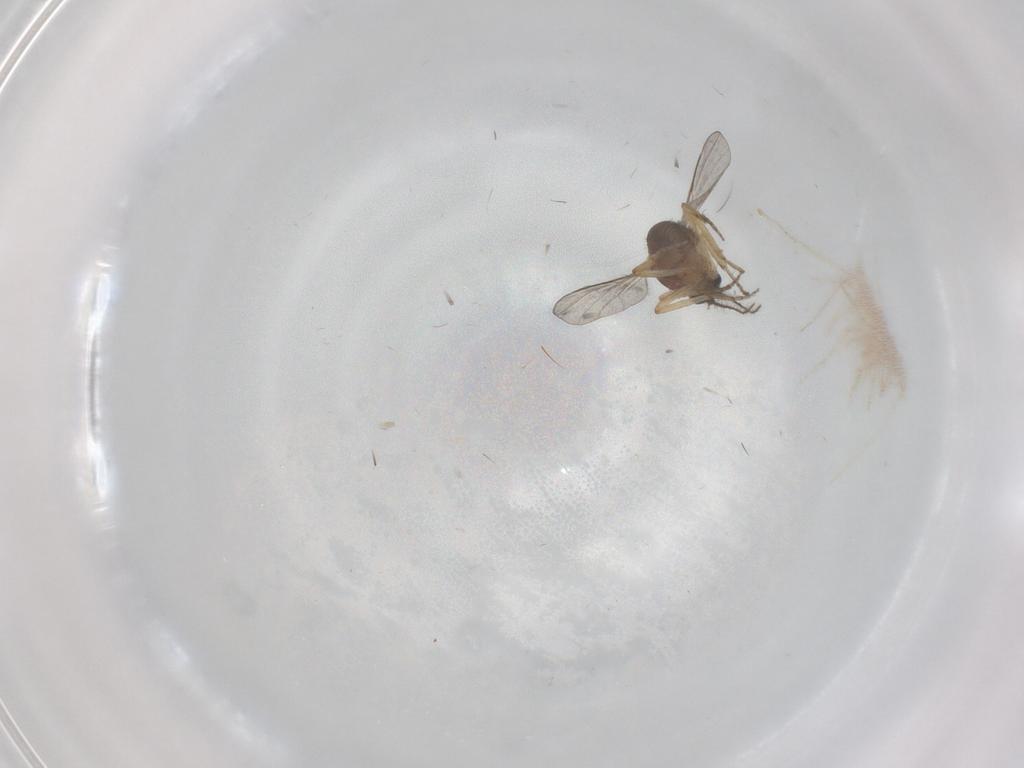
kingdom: Animalia
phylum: Arthropoda
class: Insecta
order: Diptera
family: Ceratopogonidae
